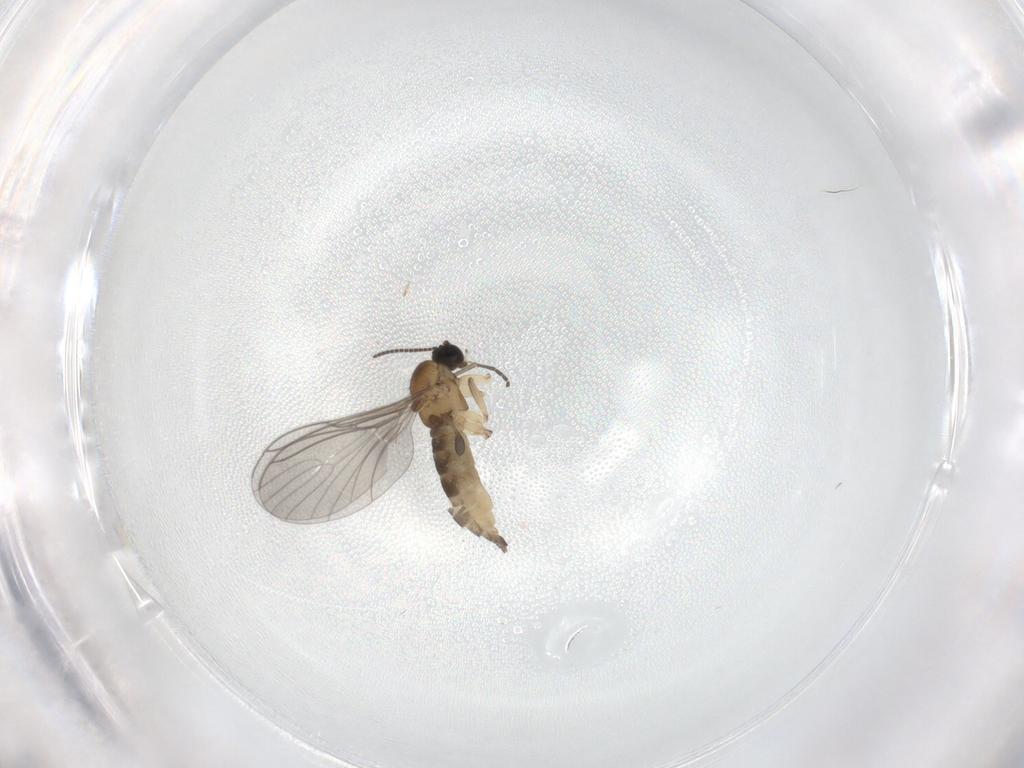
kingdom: Animalia
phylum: Arthropoda
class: Insecta
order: Diptera
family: Sciaridae
